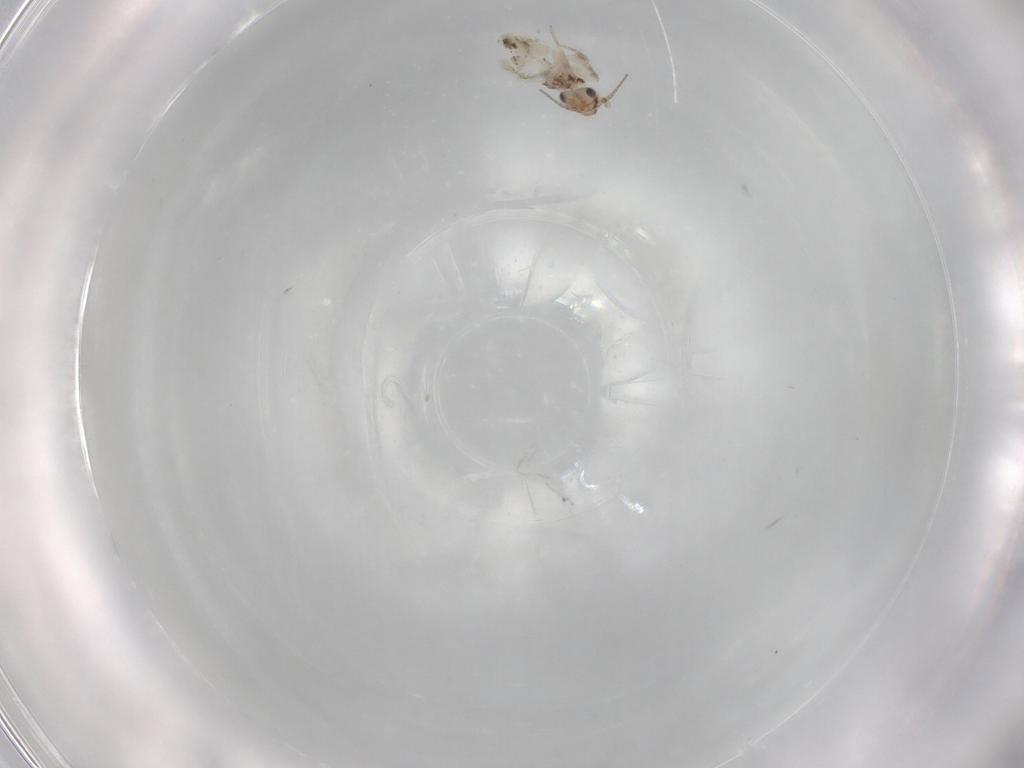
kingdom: Animalia
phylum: Arthropoda
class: Insecta
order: Psocodea
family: Lepidopsocidae
